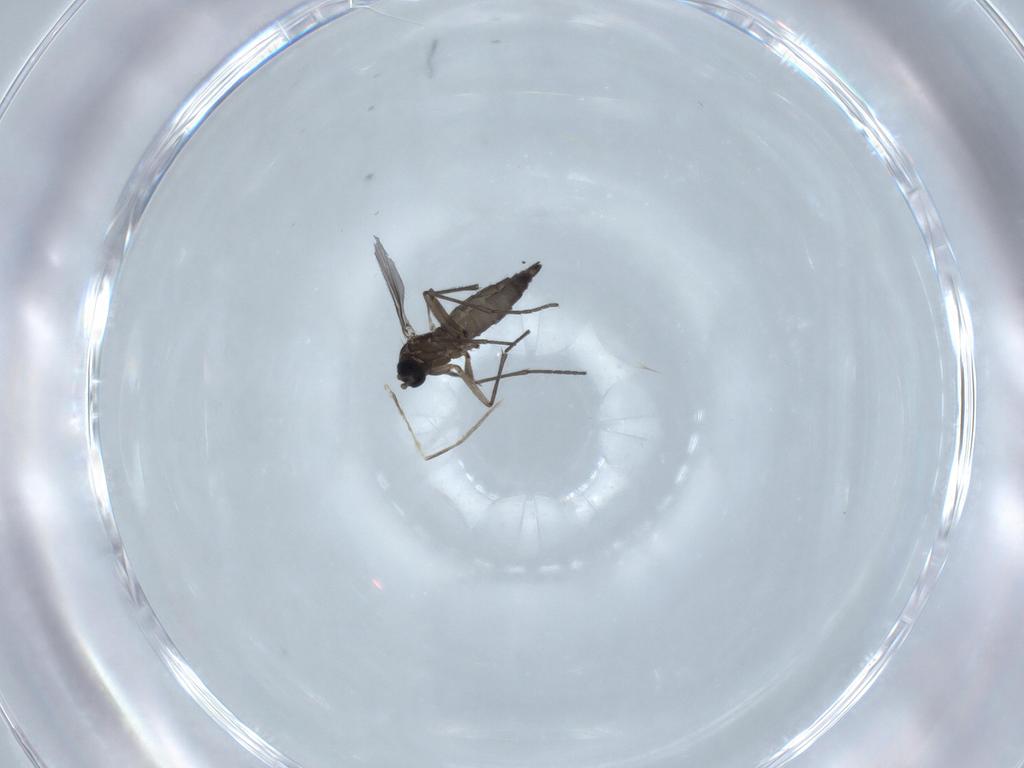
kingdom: Animalia
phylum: Arthropoda
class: Insecta
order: Diptera
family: Sciaridae
